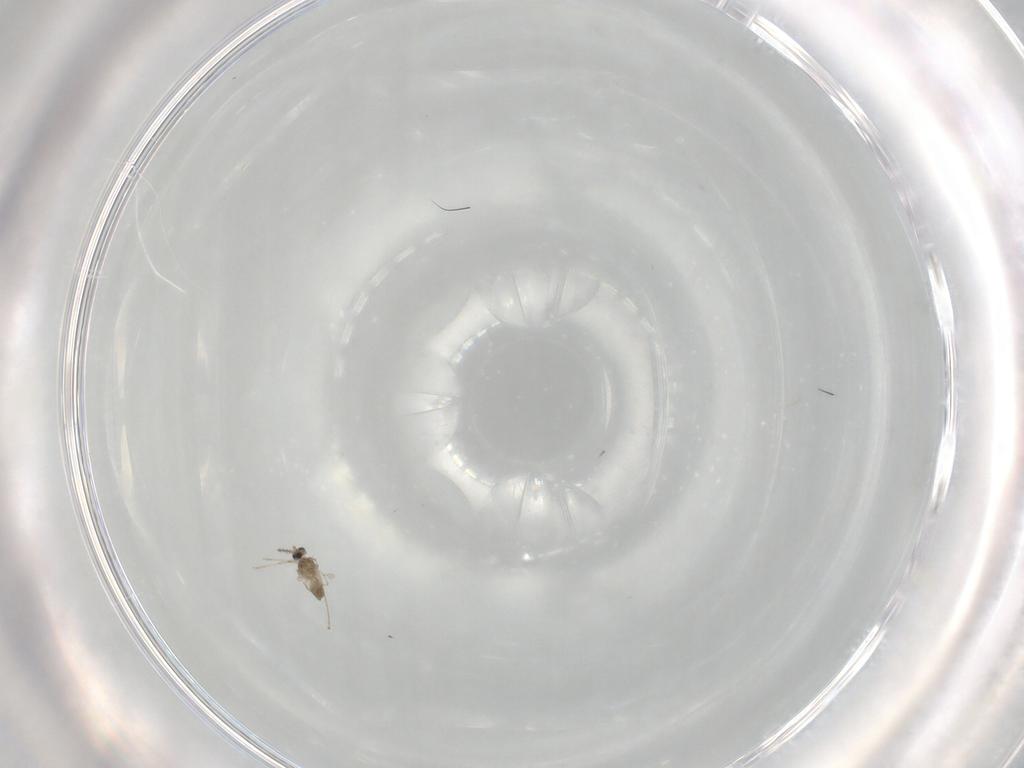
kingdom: Animalia
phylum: Arthropoda
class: Insecta
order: Diptera
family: Cecidomyiidae
